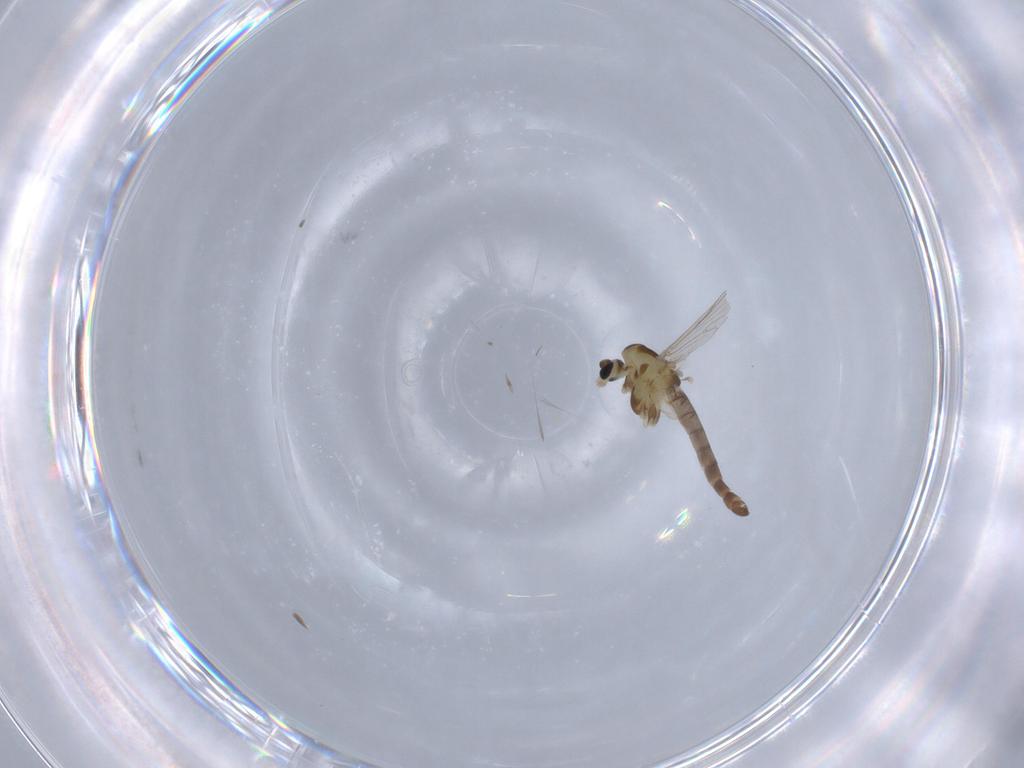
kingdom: Animalia
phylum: Arthropoda
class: Insecta
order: Diptera
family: Chironomidae
